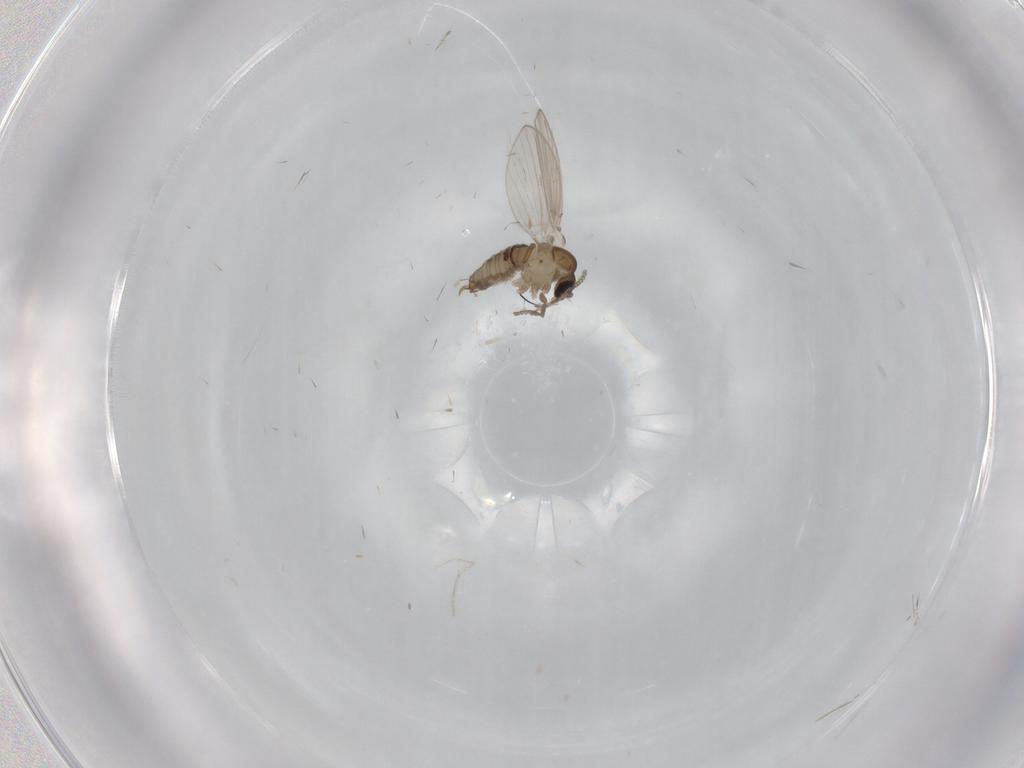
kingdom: Animalia
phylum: Arthropoda
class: Insecta
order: Diptera
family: Psychodidae
